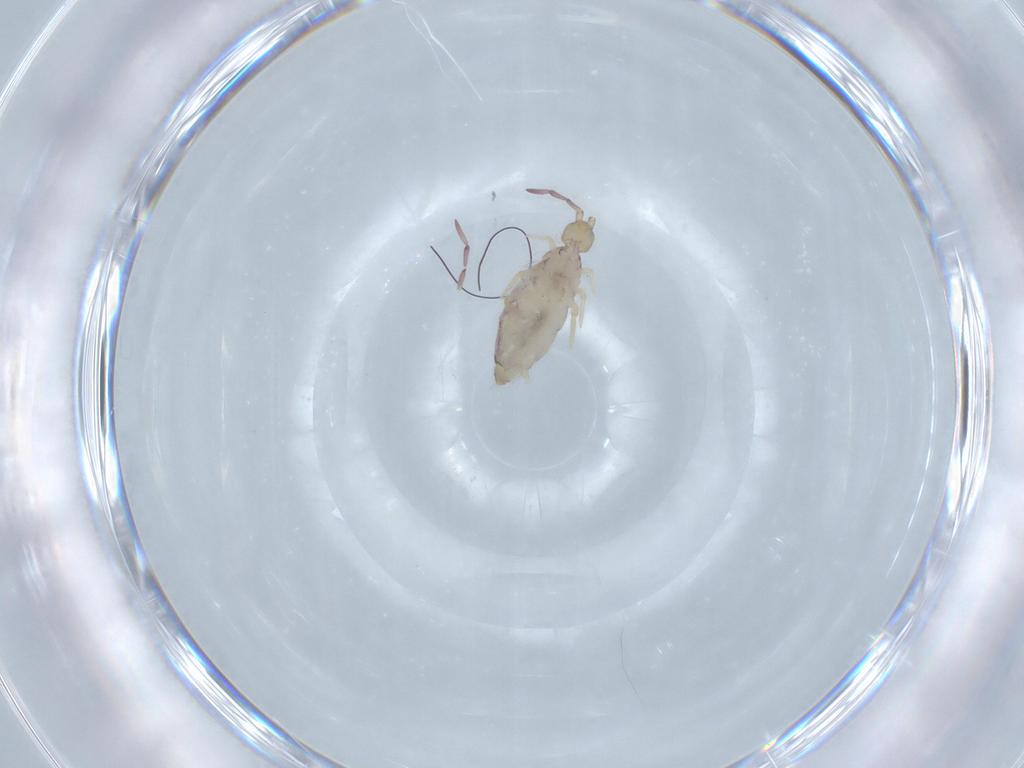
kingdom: Animalia
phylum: Arthropoda
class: Collembola
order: Entomobryomorpha
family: Entomobryidae
